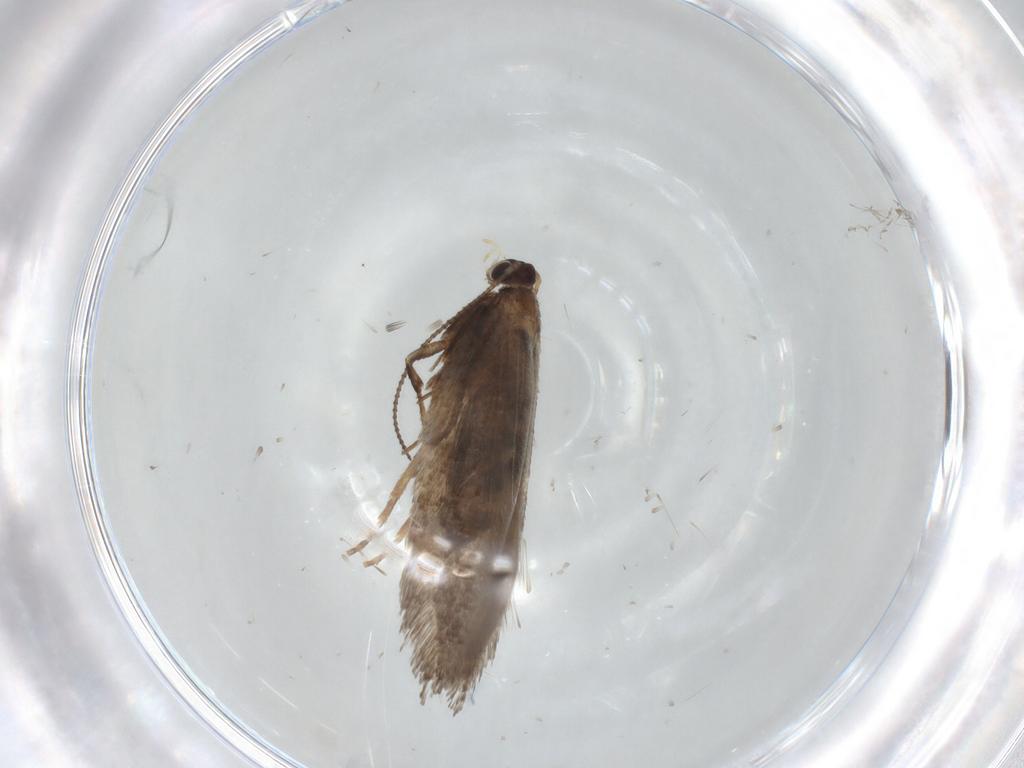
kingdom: Animalia
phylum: Arthropoda
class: Insecta
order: Lepidoptera
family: Nepticulidae
